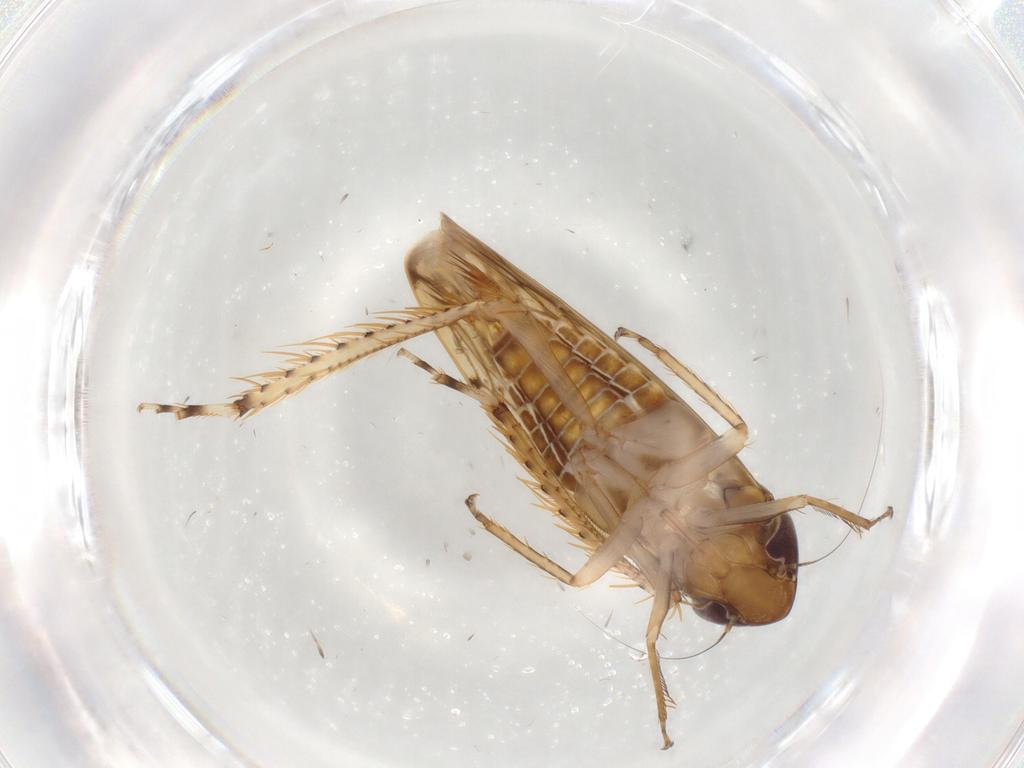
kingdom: Animalia
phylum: Arthropoda
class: Insecta
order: Hemiptera
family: Cicadellidae
